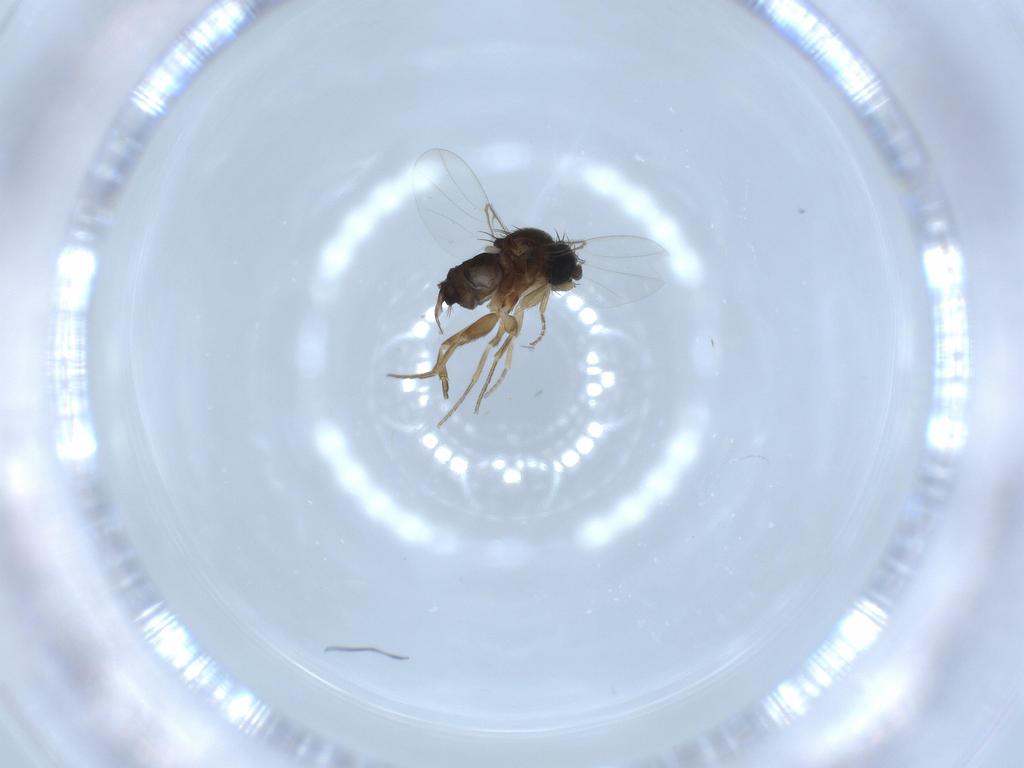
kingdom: Animalia
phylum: Arthropoda
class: Insecta
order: Diptera
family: Phoridae
